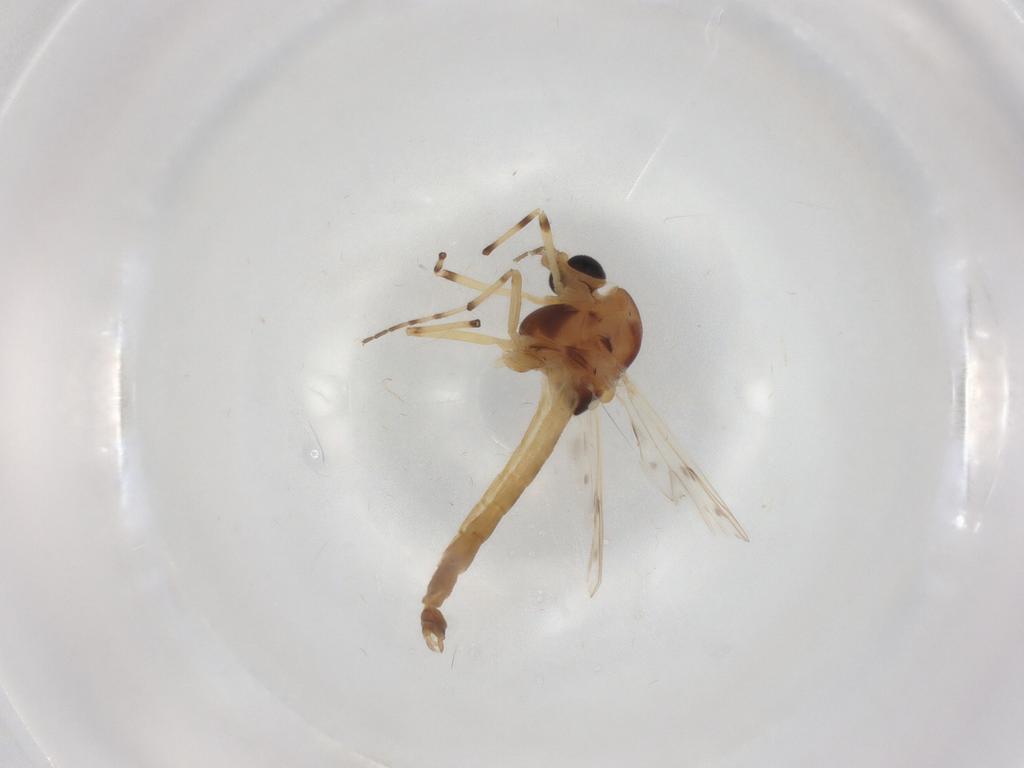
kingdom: Animalia
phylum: Arthropoda
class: Insecta
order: Diptera
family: Chironomidae
